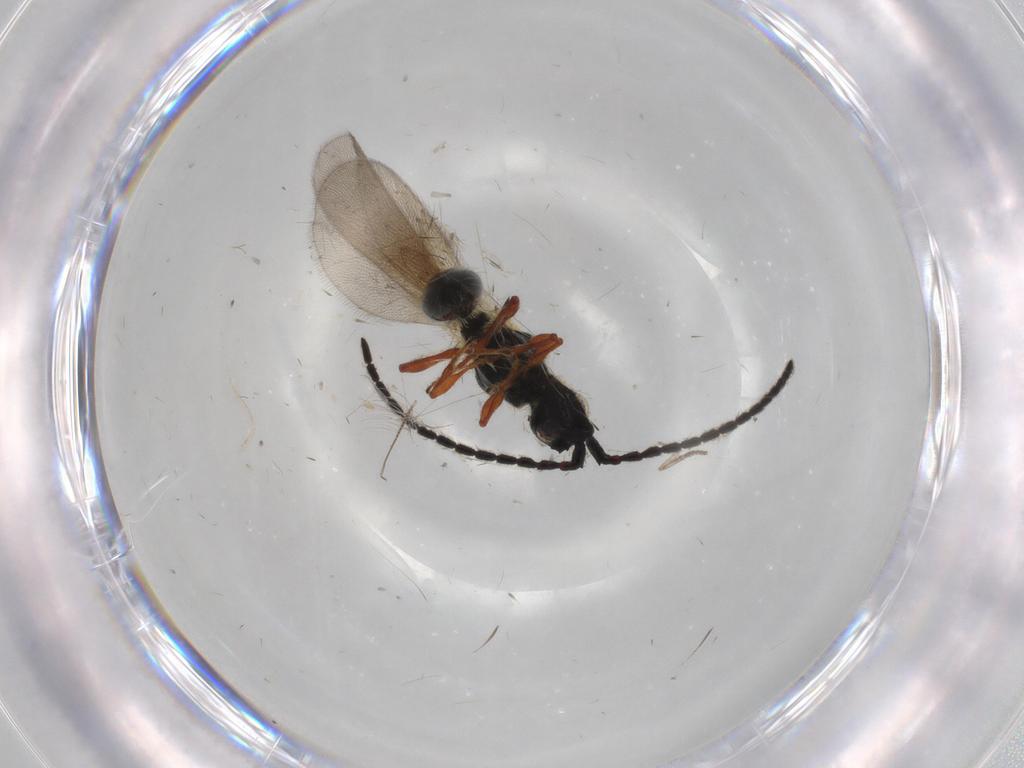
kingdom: Animalia
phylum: Arthropoda
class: Insecta
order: Hymenoptera
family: Diapriidae
